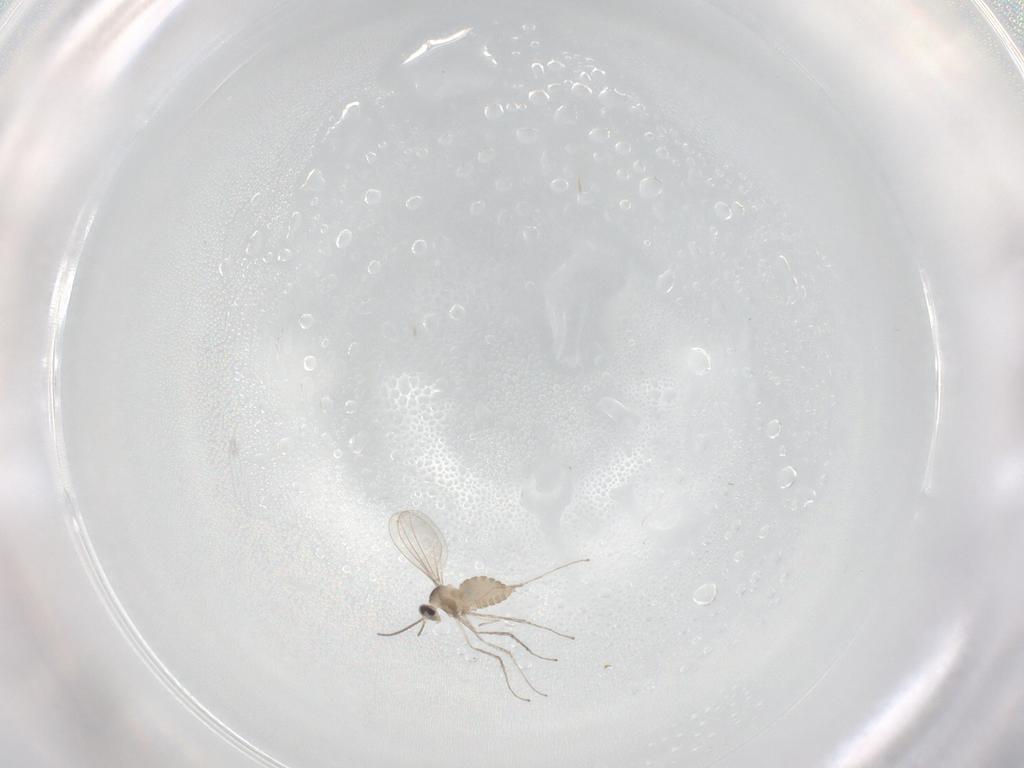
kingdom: Animalia
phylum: Arthropoda
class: Insecta
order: Diptera
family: Cecidomyiidae
